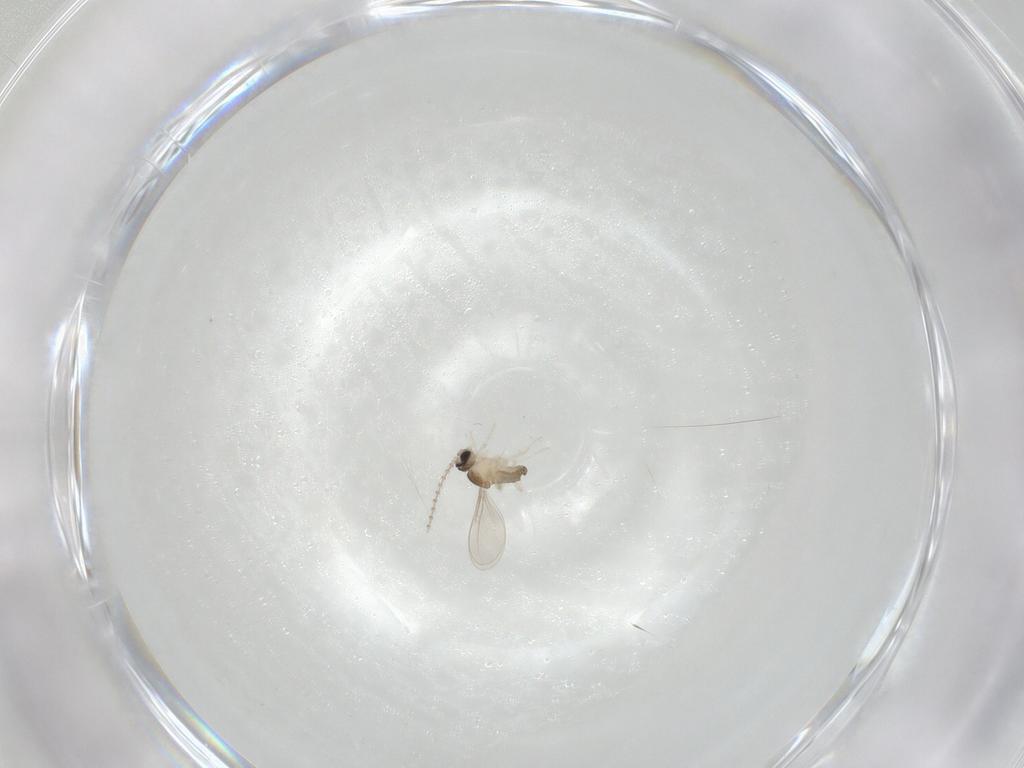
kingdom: Animalia
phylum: Arthropoda
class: Insecta
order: Diptera
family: Cecidomyiidae
